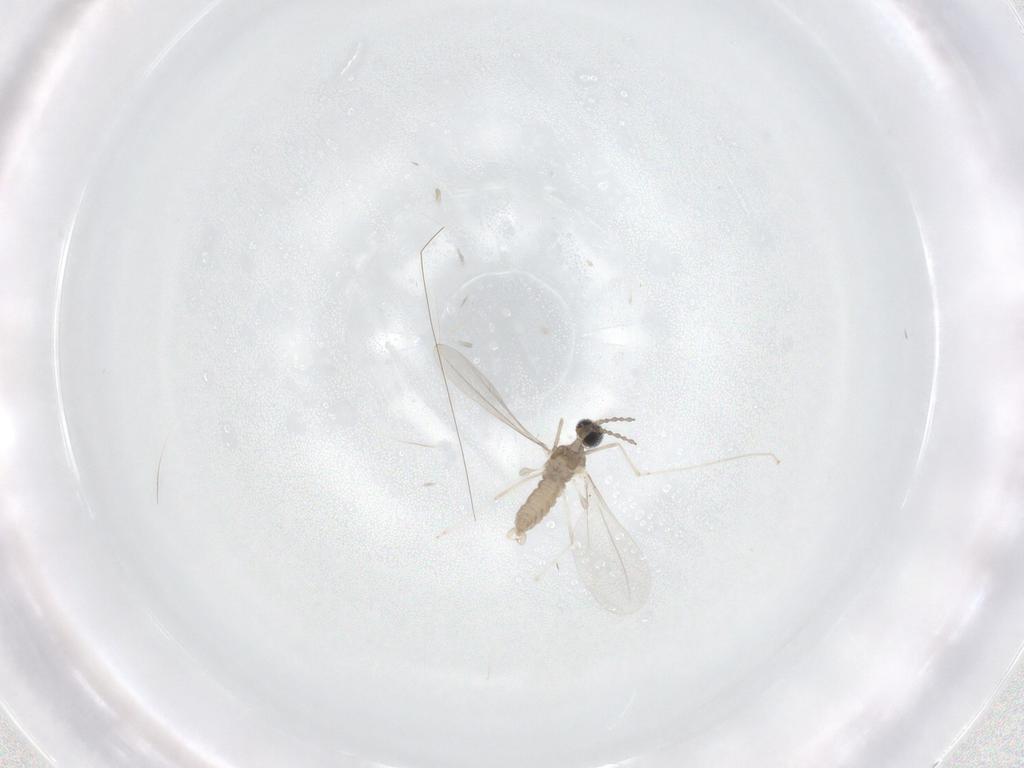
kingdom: Animalia
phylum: Arthropoda
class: Insecta
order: Diptera
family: Cecidomyiidae
